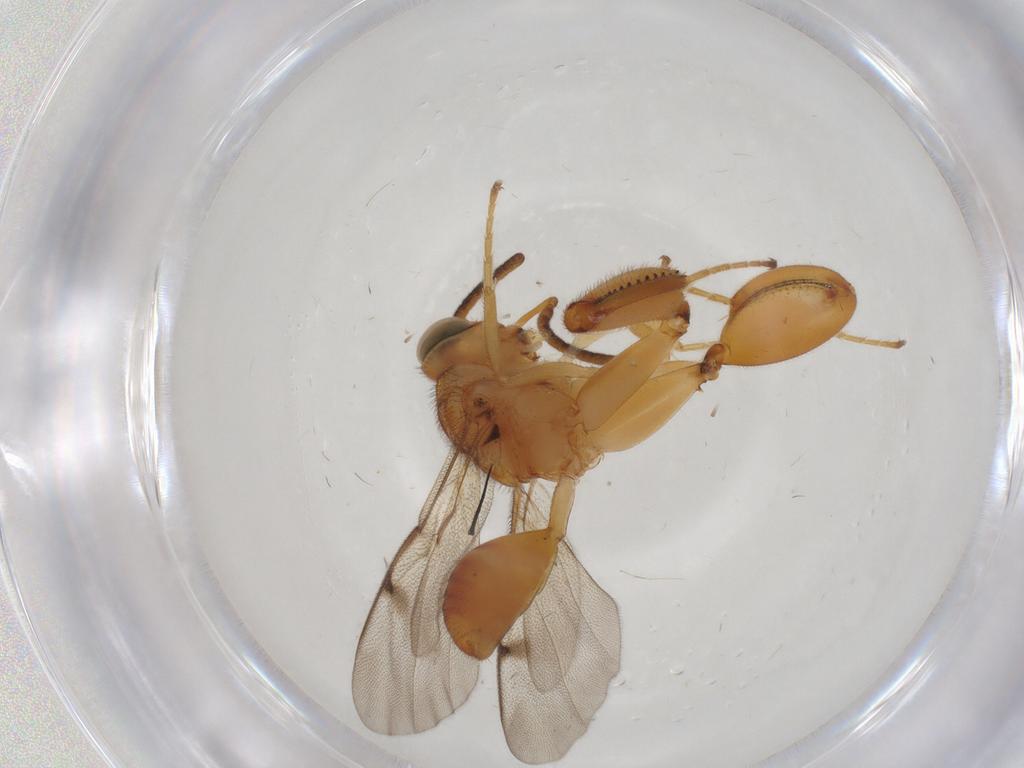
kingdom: Animalia
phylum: Arthropoda
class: Insecta
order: Hymenoptera
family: Chalcididae
